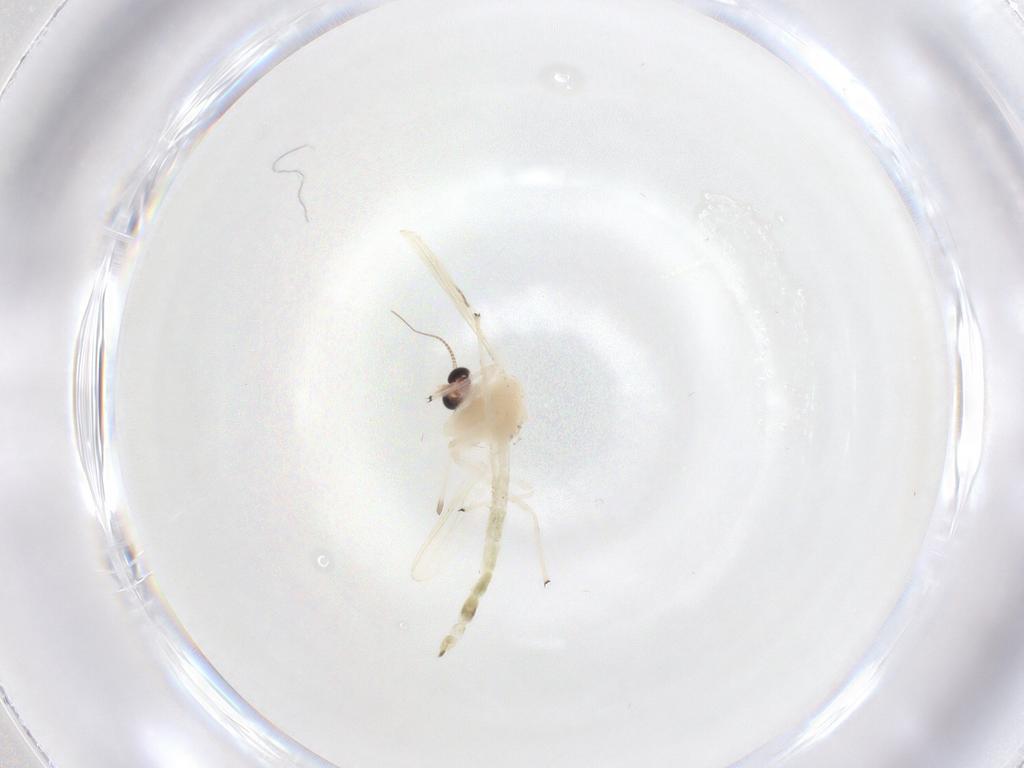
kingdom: Animalia
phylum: Arthropoda
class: Insecta
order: Diptera
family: Chironomidae
